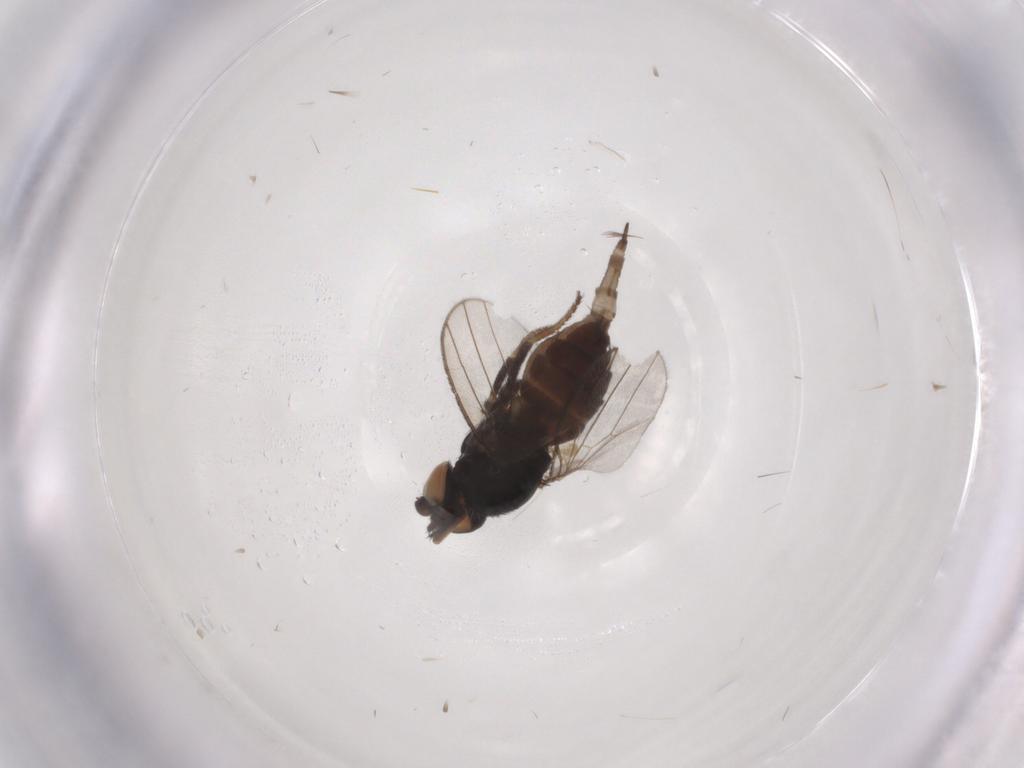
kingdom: Animalia
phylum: Arthropoda
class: Insecta
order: Diptera
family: Milichiidae
